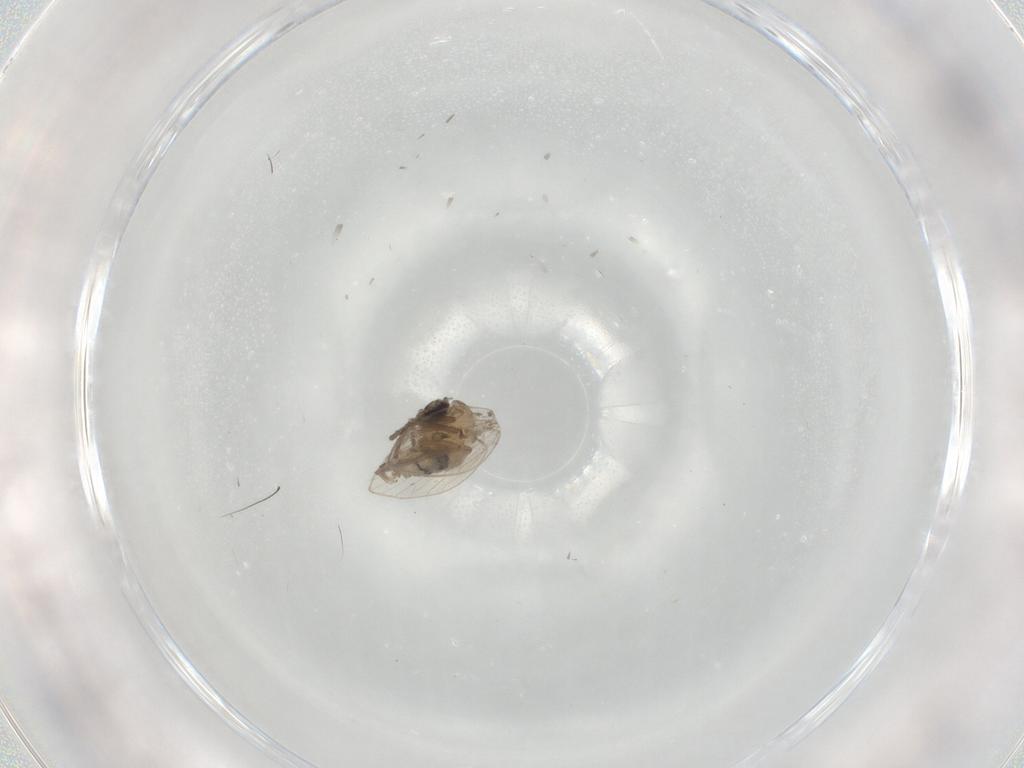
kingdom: Animalia
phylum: Arthropoda
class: Insecta
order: Diptera
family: Psychodidae
